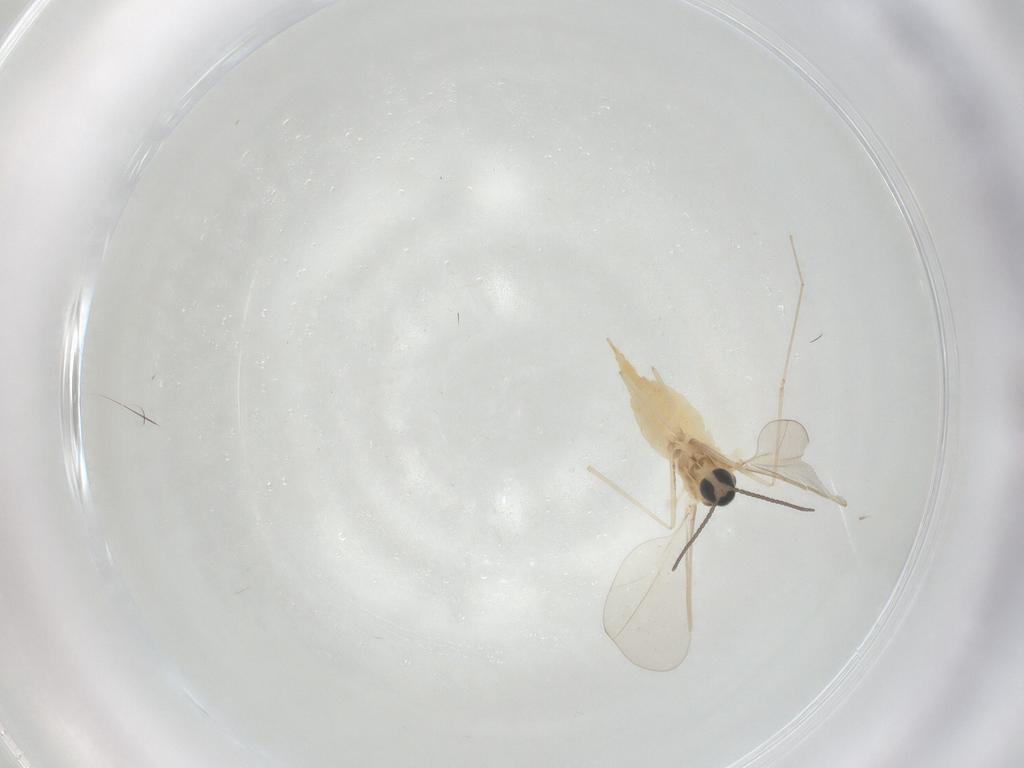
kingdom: Animalia
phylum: Arthropoda
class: Insecta
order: Diptera
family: Cecidomyiidae
